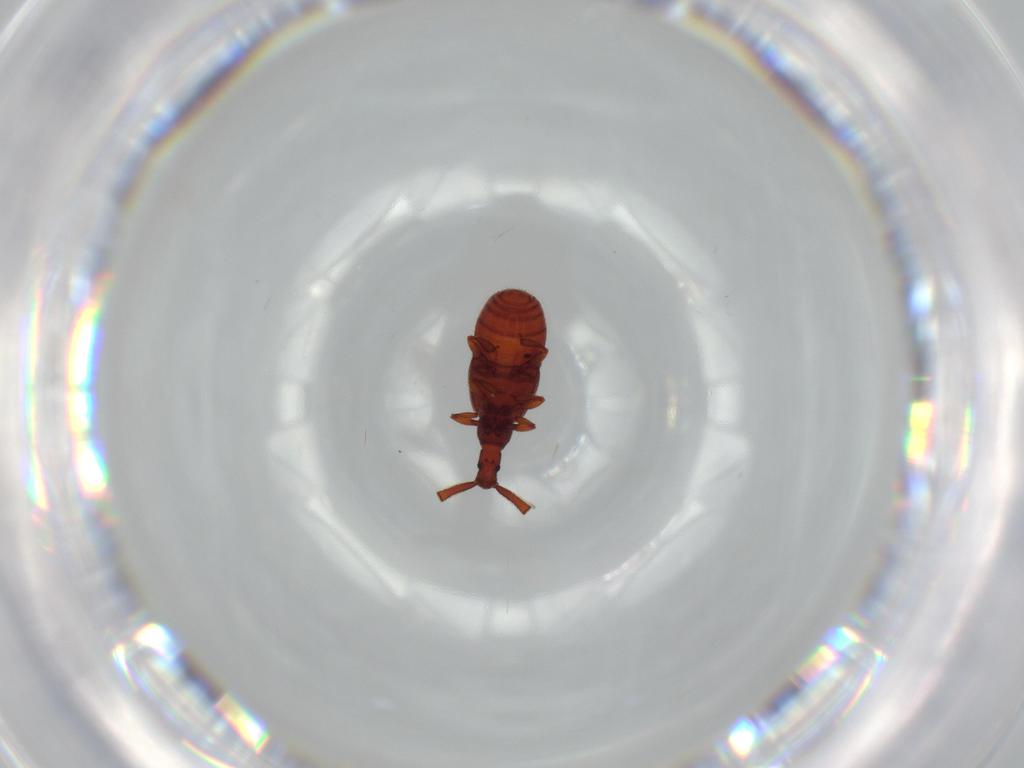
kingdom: Animalia
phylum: Arthropoda
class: Insecta
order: Coleoptera
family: Staphylinidae
